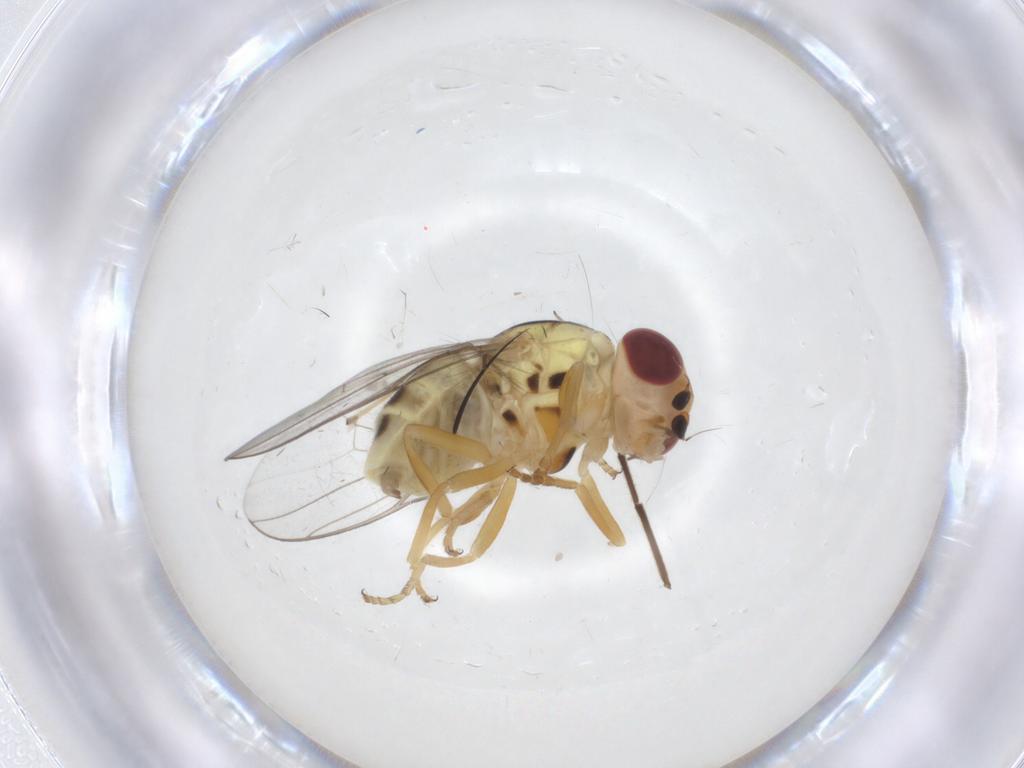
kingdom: Animalia
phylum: Arthropoda
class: Insecta
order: Diptera
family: Chloropidae
